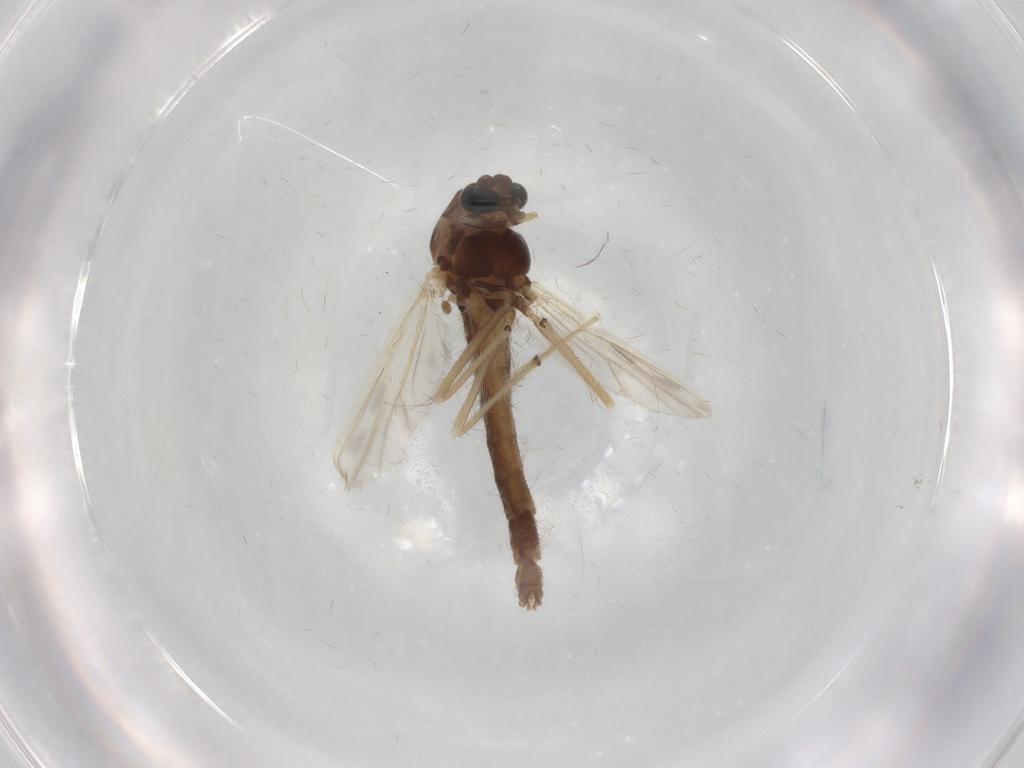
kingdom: Animalia
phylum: Arthropoda
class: Insecta
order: Diptera
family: Chironomidae
